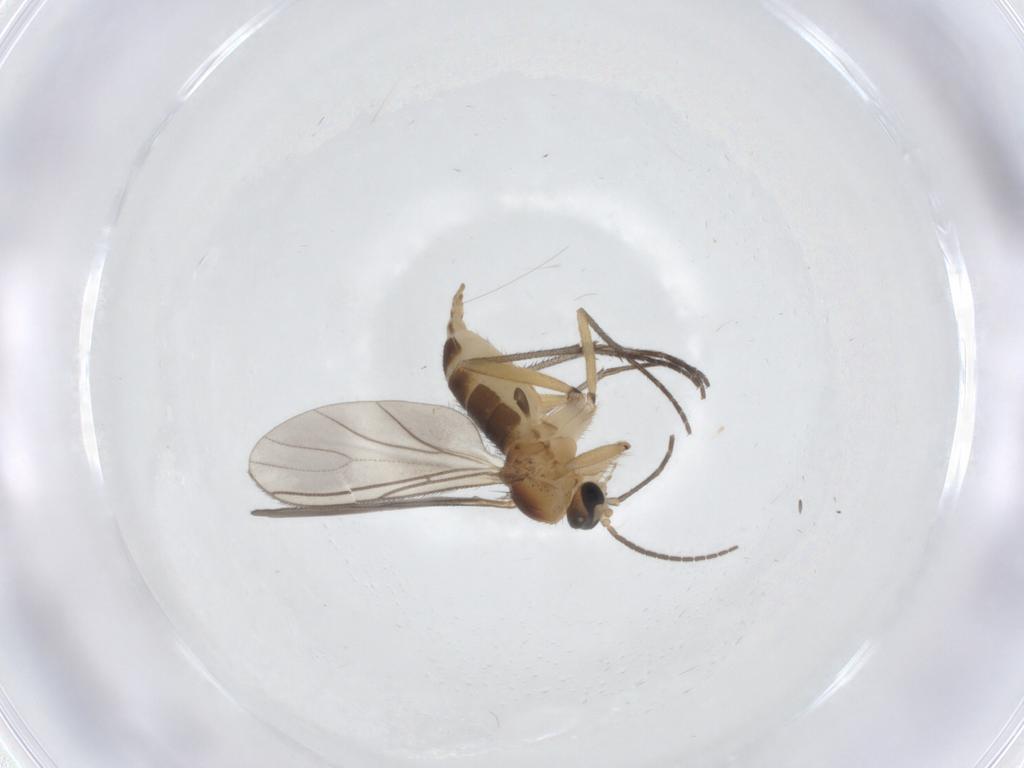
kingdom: Animalia
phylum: Arthropoda
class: Insecta
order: Diptera
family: Sciaridae
